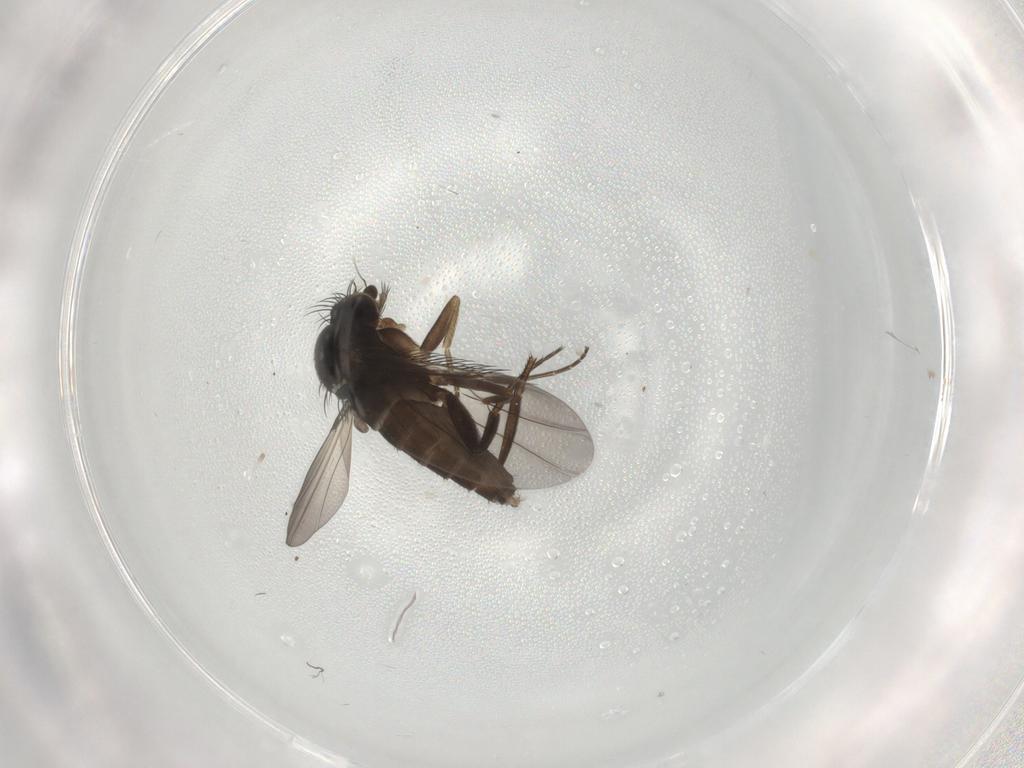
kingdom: Animalia
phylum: Arthropoda
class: Insecta
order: Diptera
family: Phoridae
